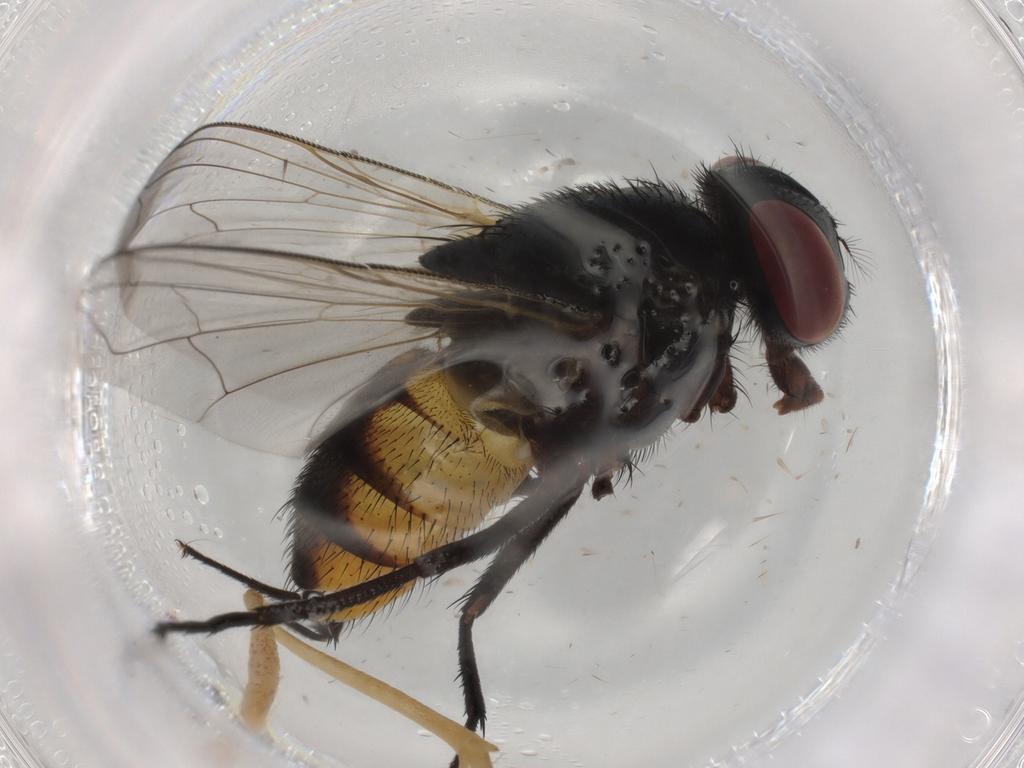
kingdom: Animalia
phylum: Arthropoda
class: Insecta
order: Diptera
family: Muscidae
